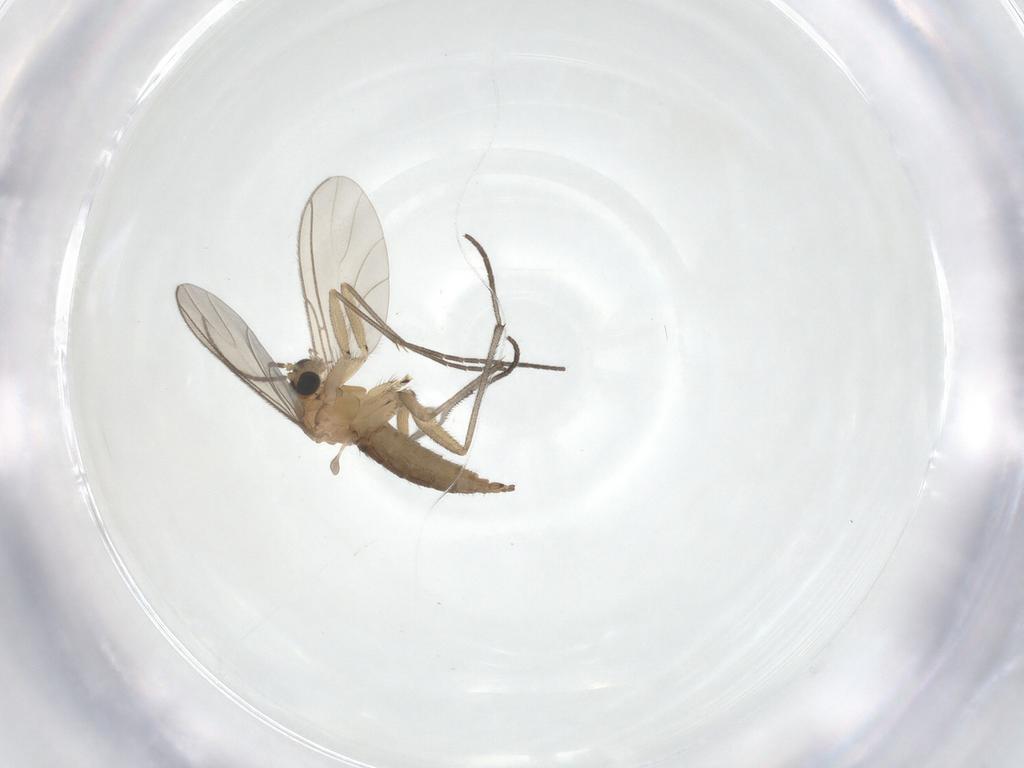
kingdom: Animalia
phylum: Arthropoda
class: Insecta
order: Diptera
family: Sciaridae
